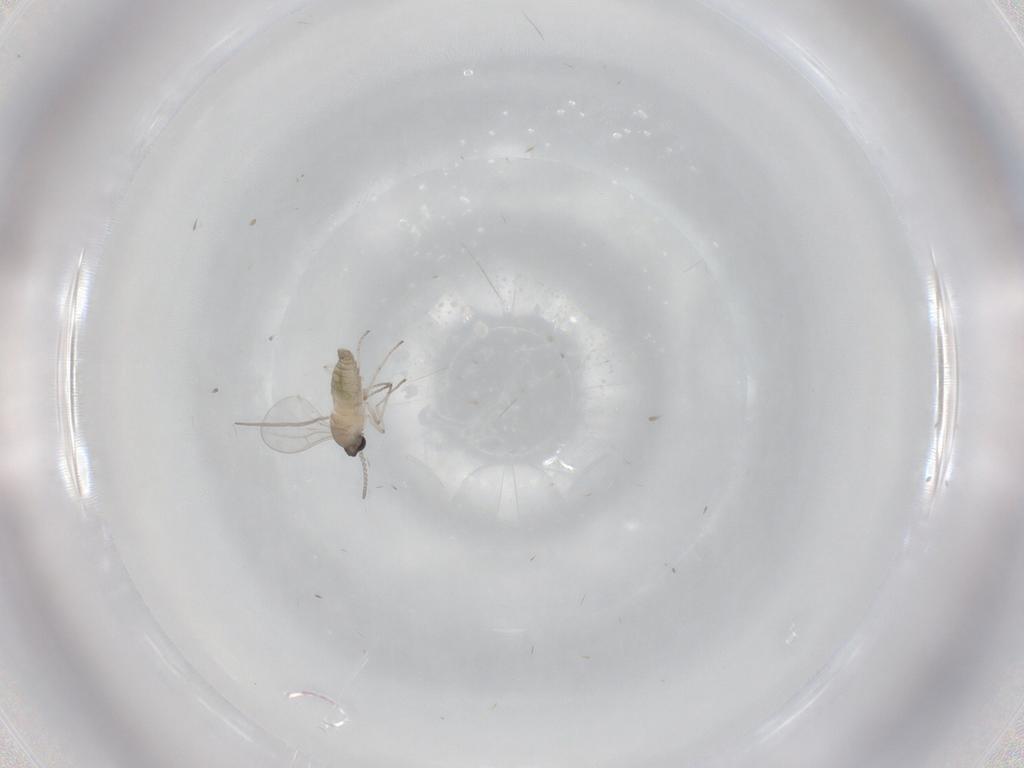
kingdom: Animalia
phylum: Arthropoda
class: Insecta
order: Diptera
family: Cecidomyiidae
